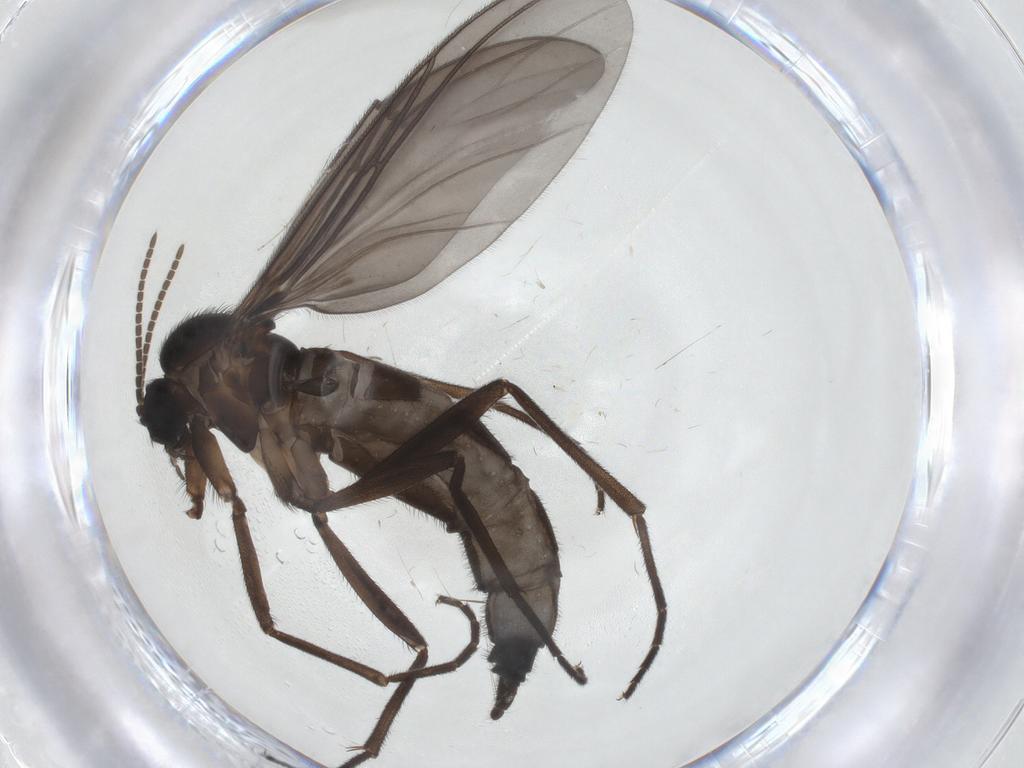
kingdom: Animalia
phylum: Arthropoda
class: Insecta
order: Diptera
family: Sciaridae
